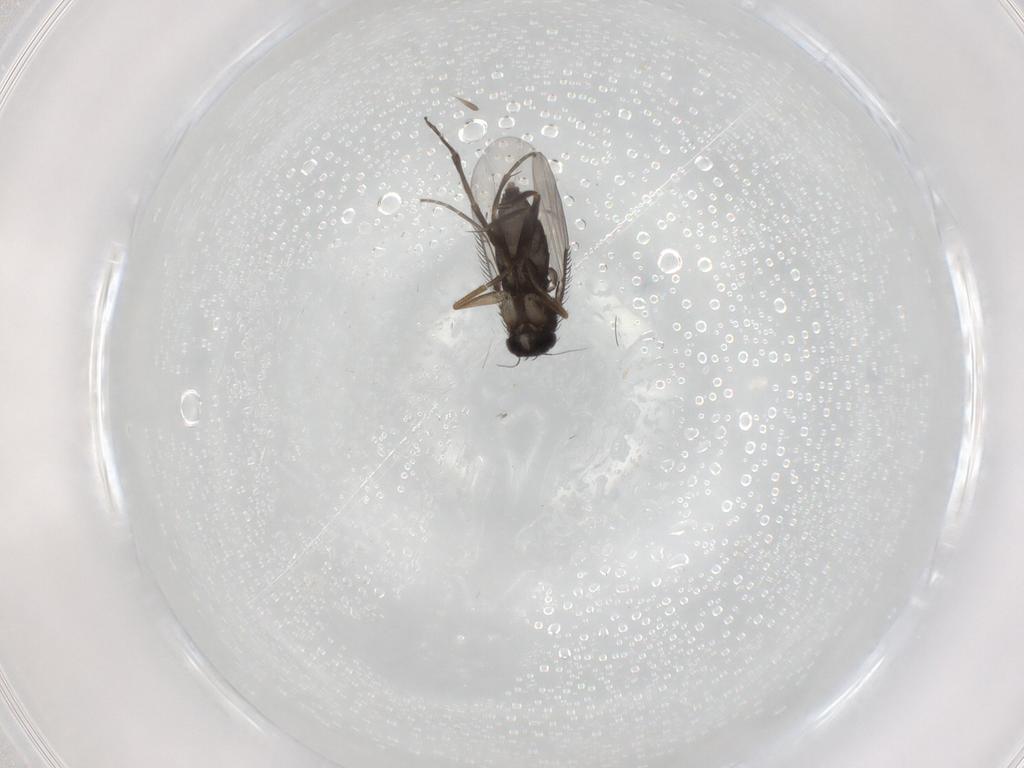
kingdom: Animalia
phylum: Arthropoda
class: Insecta
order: Diptera
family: Phoridae
